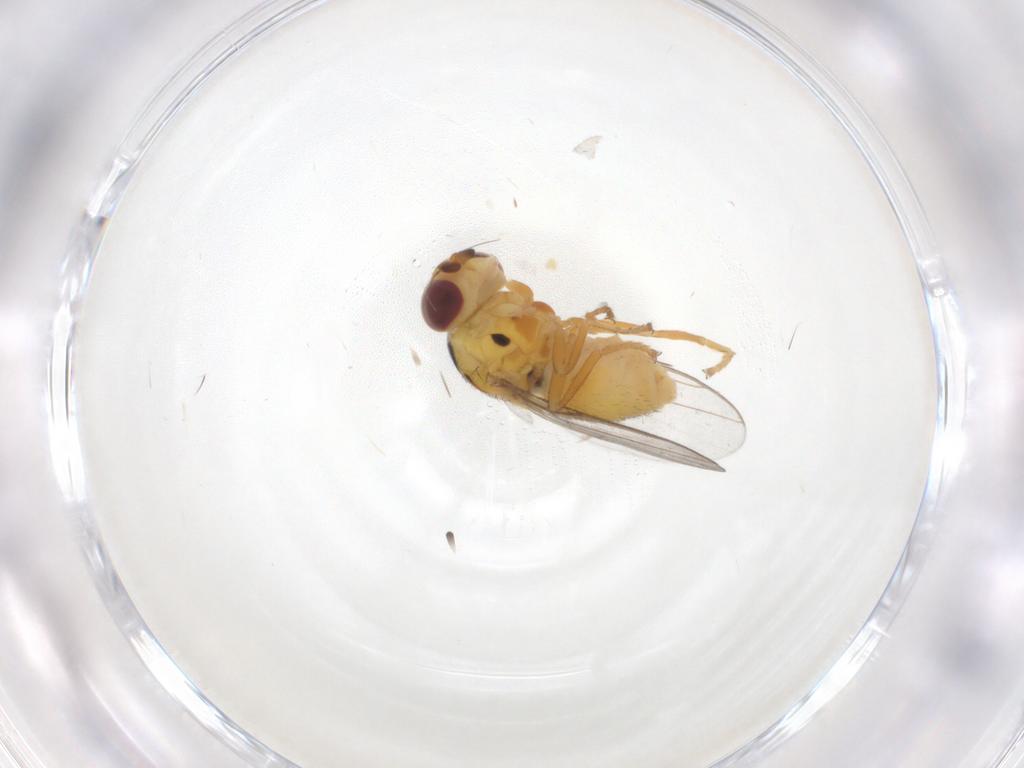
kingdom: Animalia
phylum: Arthropoda
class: Insecta
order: Diptera
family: Chloropidae
